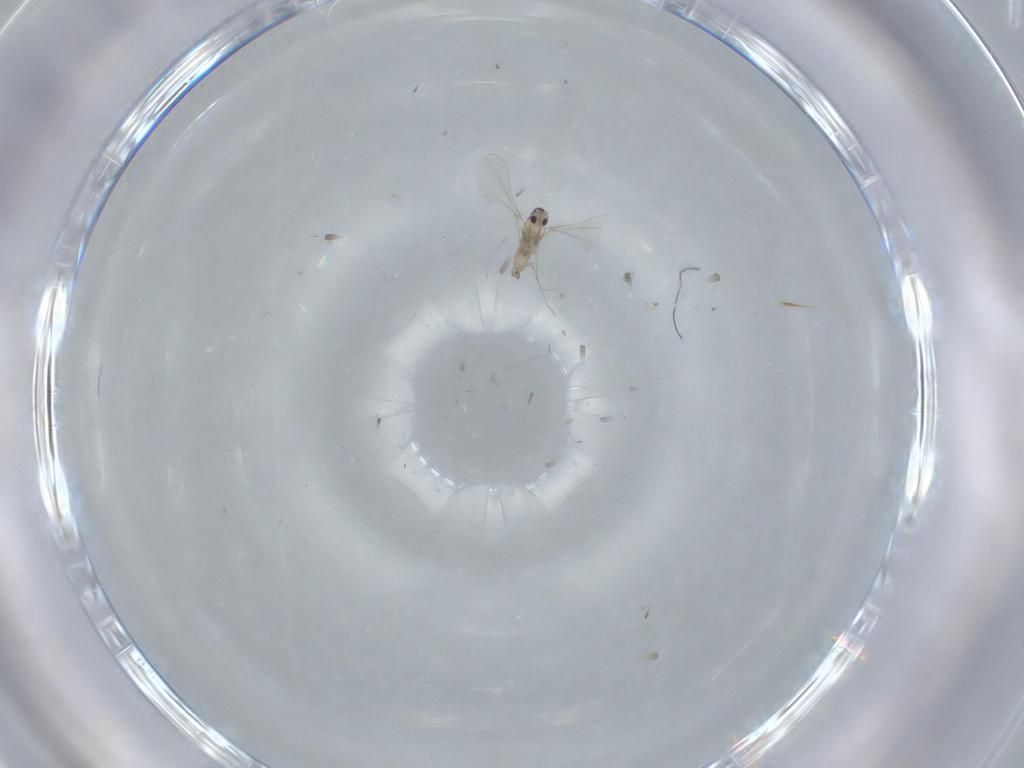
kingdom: Animalia
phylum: Arthropoda
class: Insecta
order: Diptera
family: Cecidomyiidae
